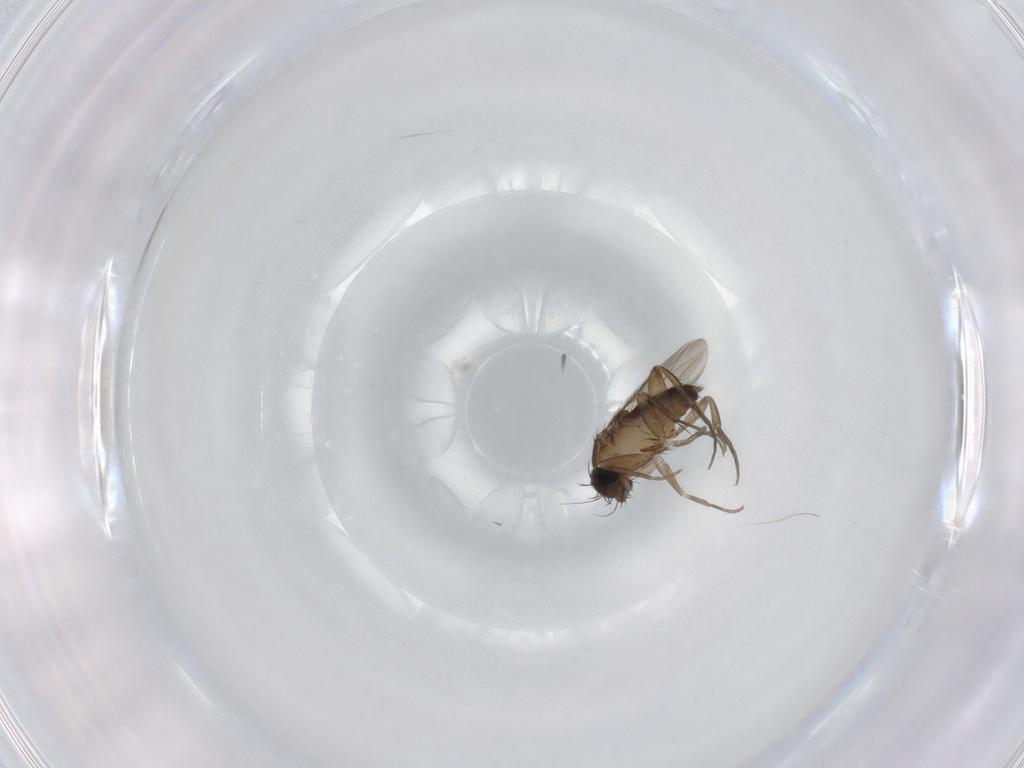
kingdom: Animalia
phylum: Arthropoda
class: Insecta
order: Diptera
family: Phoridae
